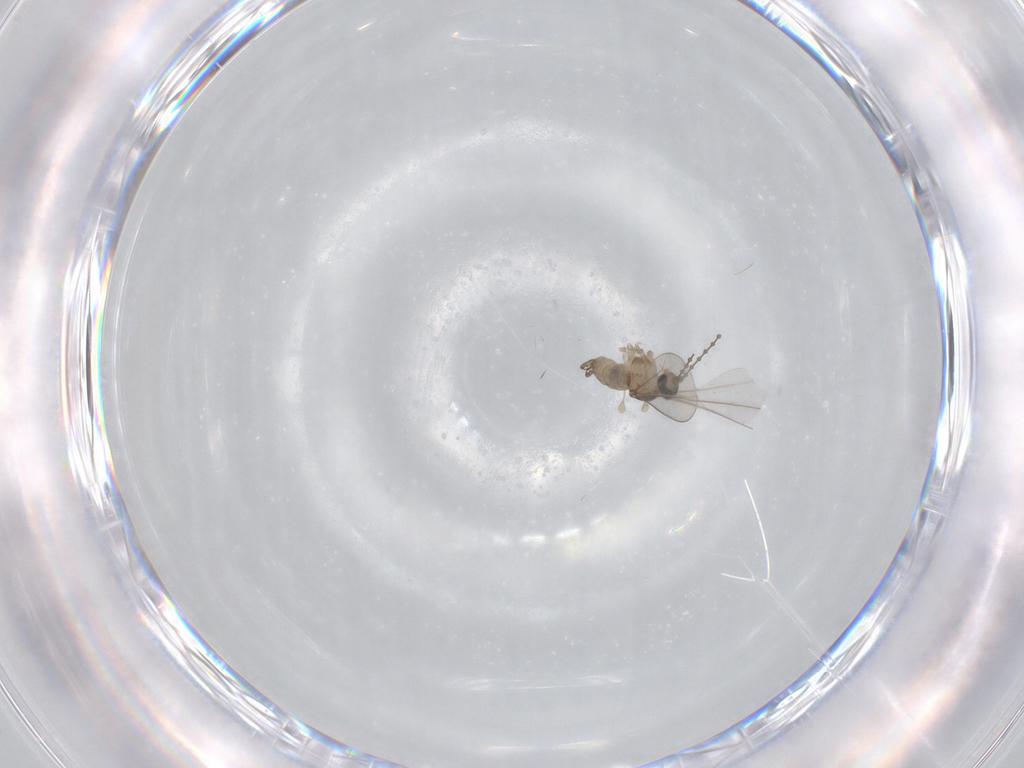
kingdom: Animalia
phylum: Arthropoda
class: Insecta
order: Diptera
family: Cecidomyiidae
